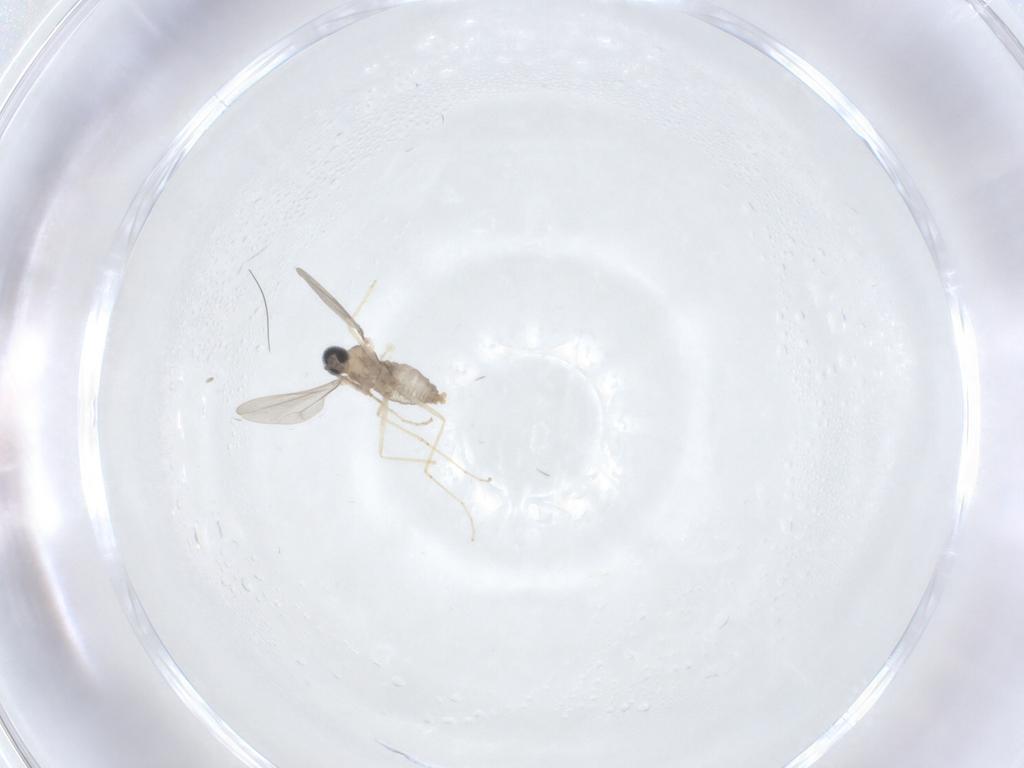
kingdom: Animalia
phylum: Arthropoda
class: Insecta
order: Diptera
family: Cecidomyiidae
